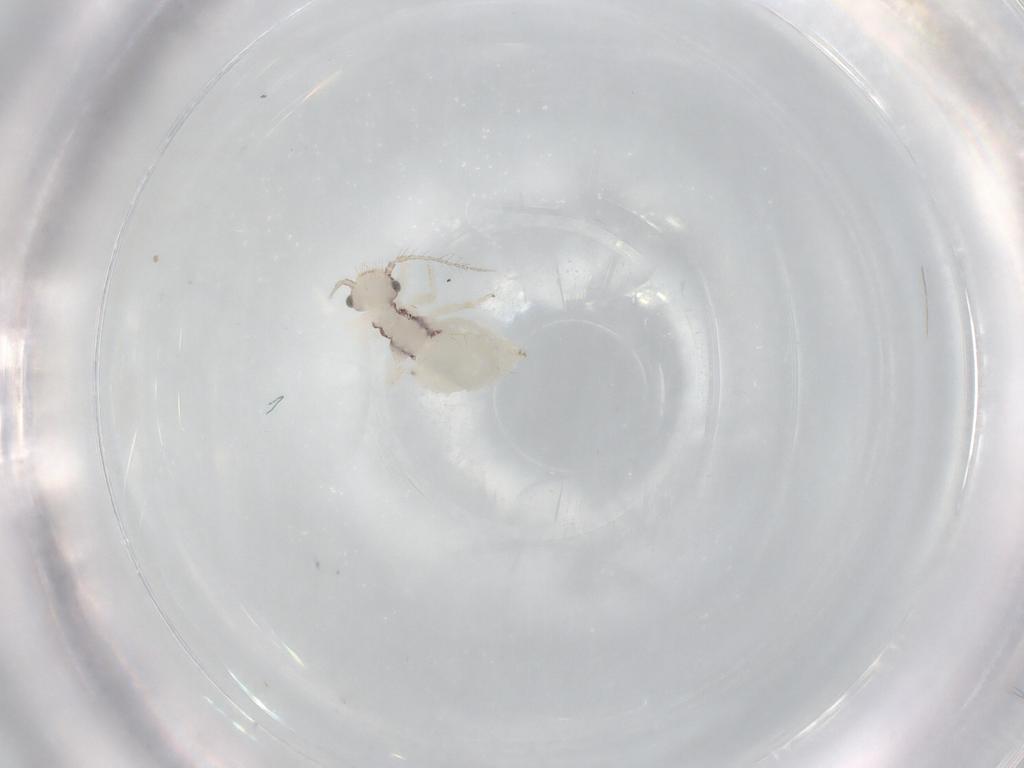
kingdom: Animalia
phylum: Arthropoda
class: Insecta
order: Psocodea
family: Pseudocaeciliidae
